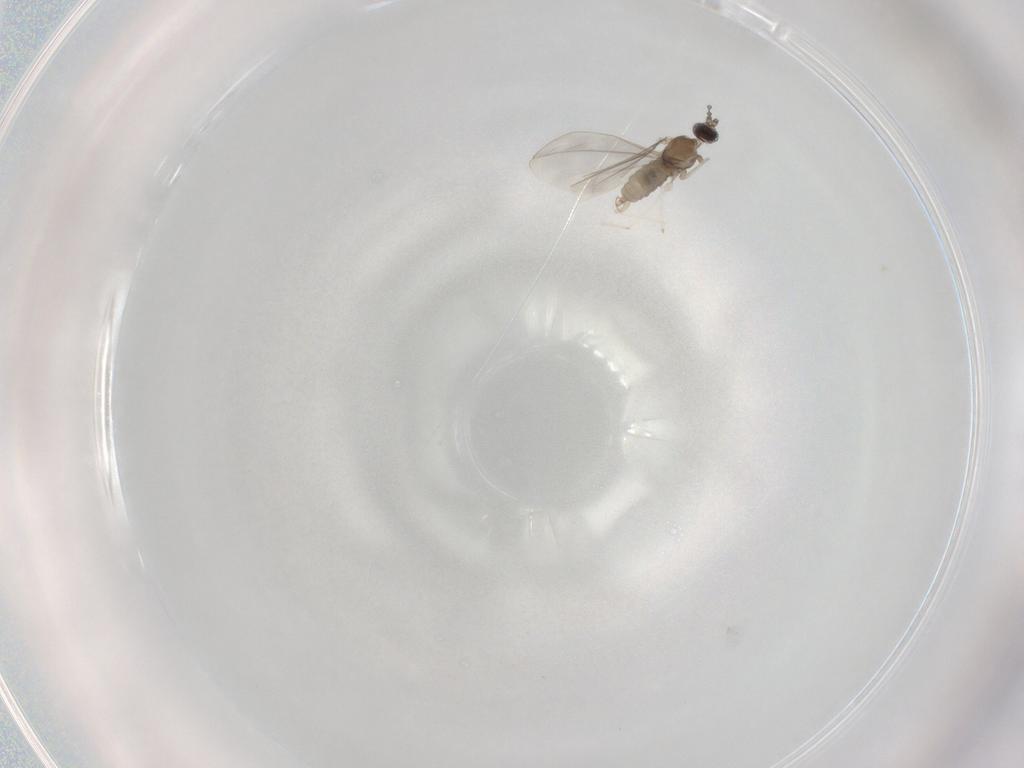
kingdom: Animalia
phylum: Arthropoda
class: Insecta
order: Diptera
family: Cecidomyiidae
